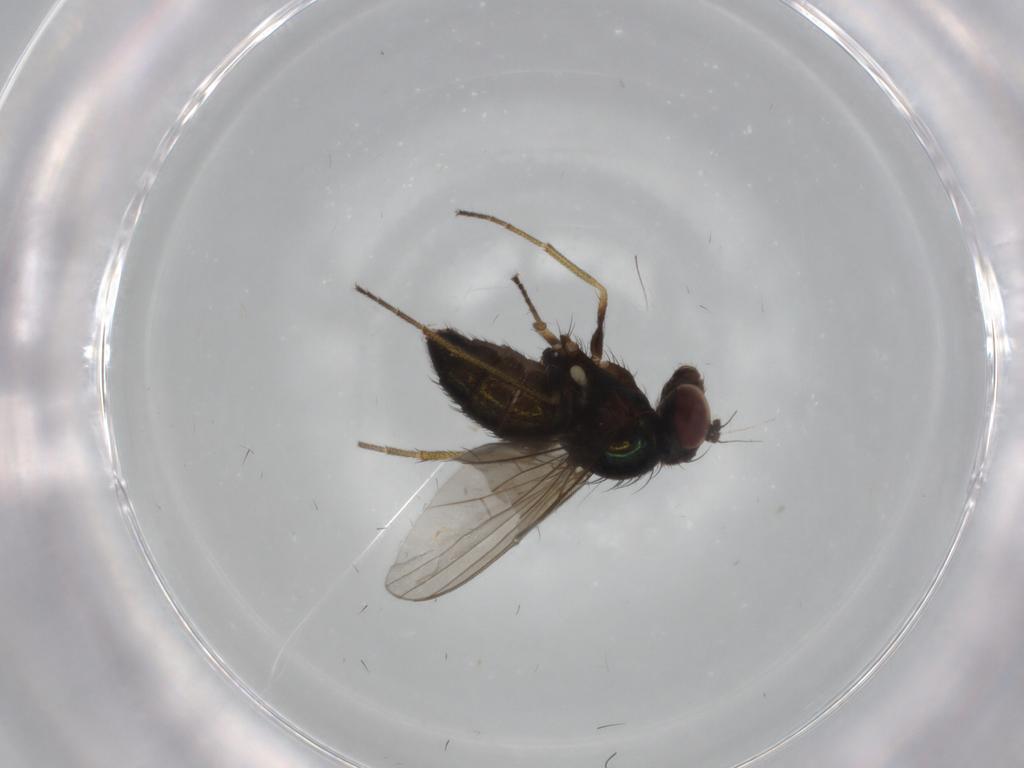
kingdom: Animalia
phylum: Arthropoda
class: Insecta
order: Diptera
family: Dolichopodidae
